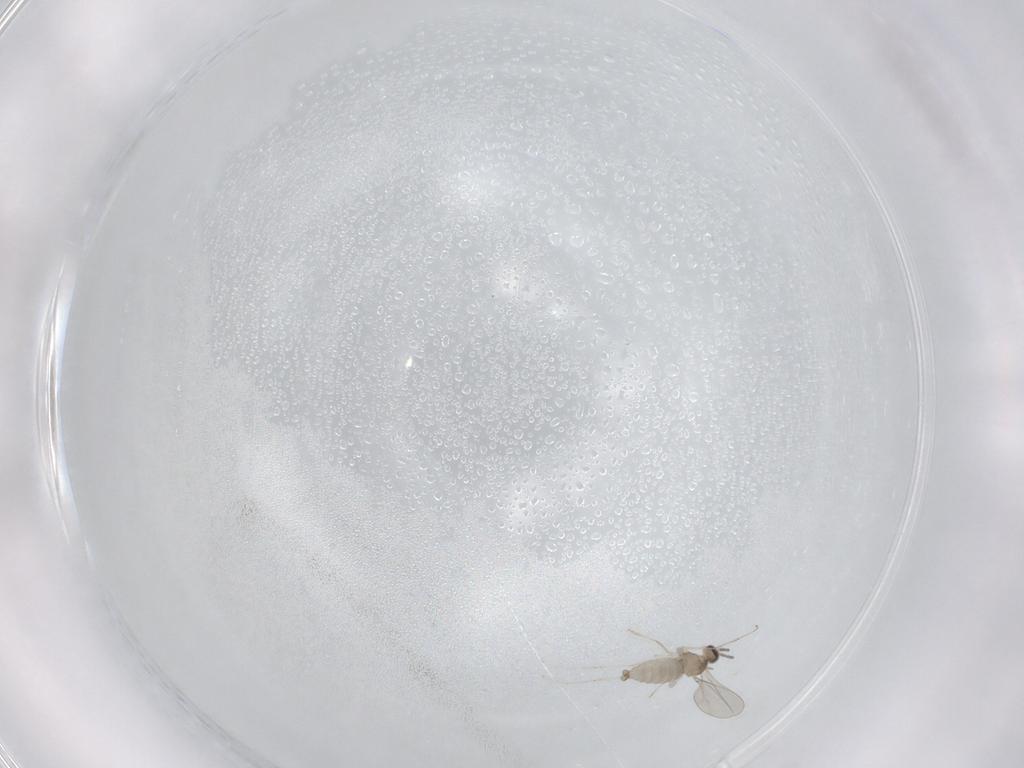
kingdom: Animalia
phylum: Arthropoda
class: Insecta
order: Diptera
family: Cecidomyiidae
